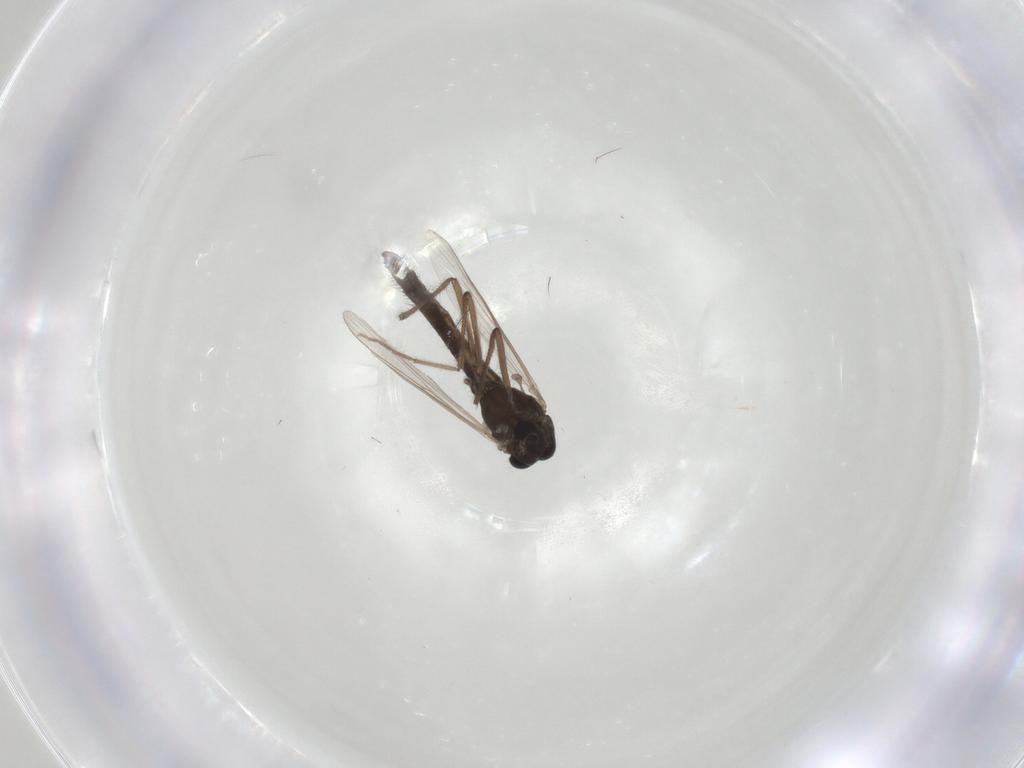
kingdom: Animalia
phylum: Arthropoda
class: Insecta
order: Diptera
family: Chironomidae
